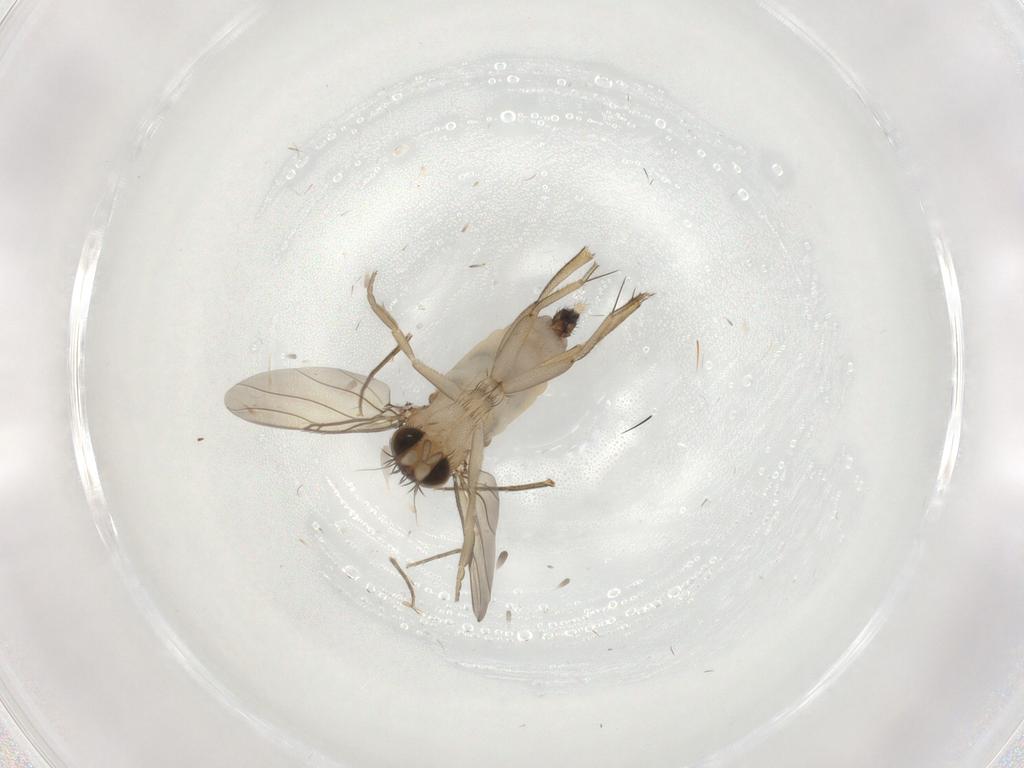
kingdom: Animalia
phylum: Arthropoda
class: Insecta
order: Diptera
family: Phoridae
